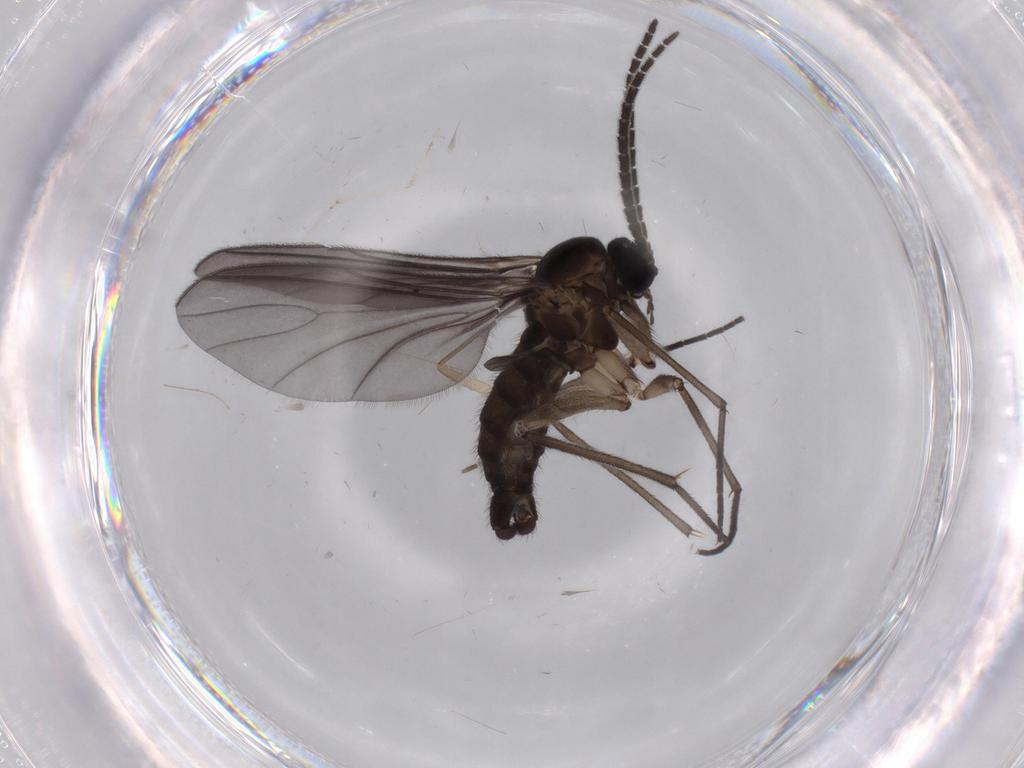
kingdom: Animalia
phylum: Arthropoda
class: Insecta
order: Diptera
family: Sciaridae
